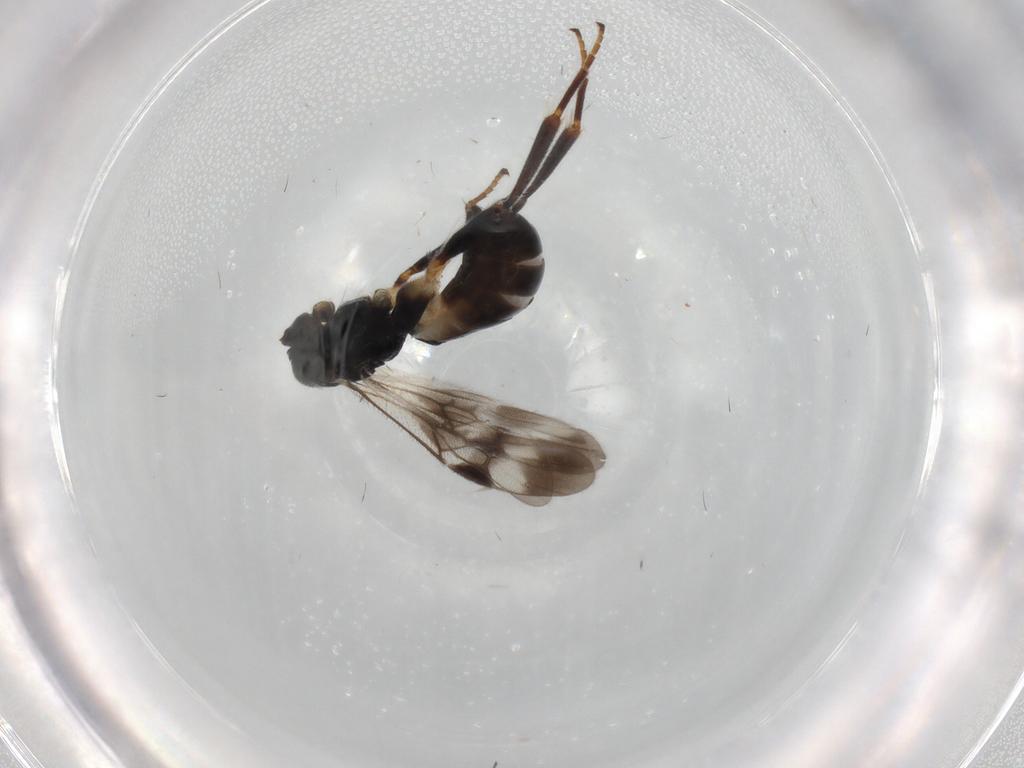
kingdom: Animalia
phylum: Arthropoda
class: Insecta
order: Hymenoptera
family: Braconidae
